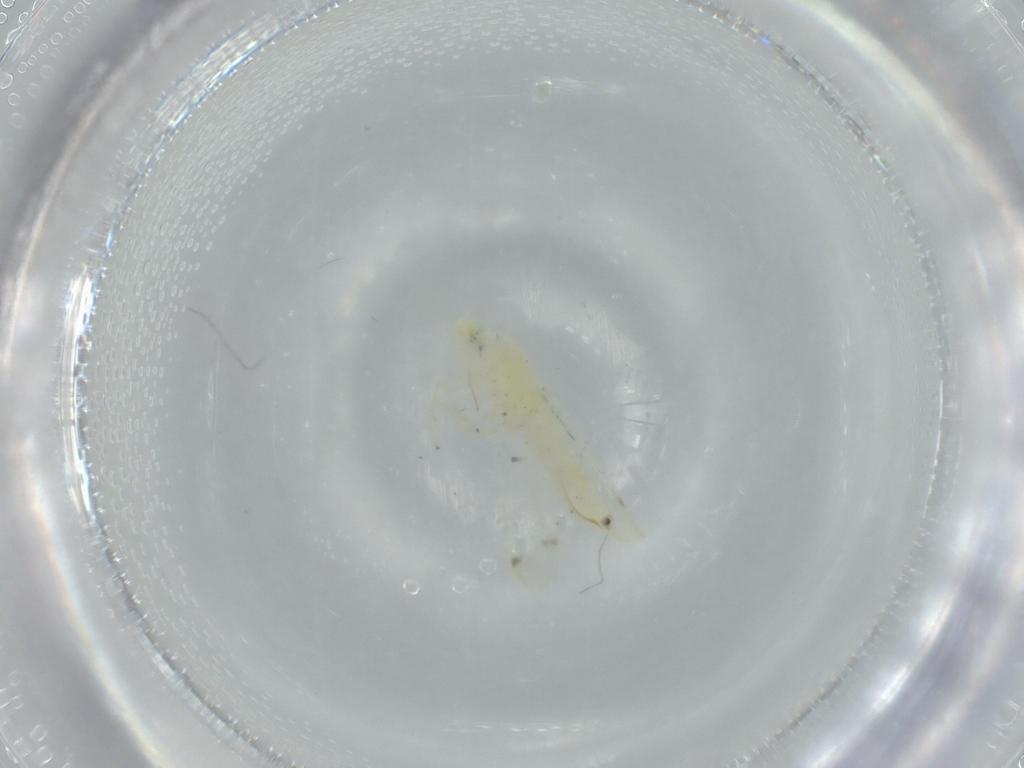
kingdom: Animalia
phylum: Arthropoda
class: Insecta
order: Hemiptera
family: Cicadellidae
